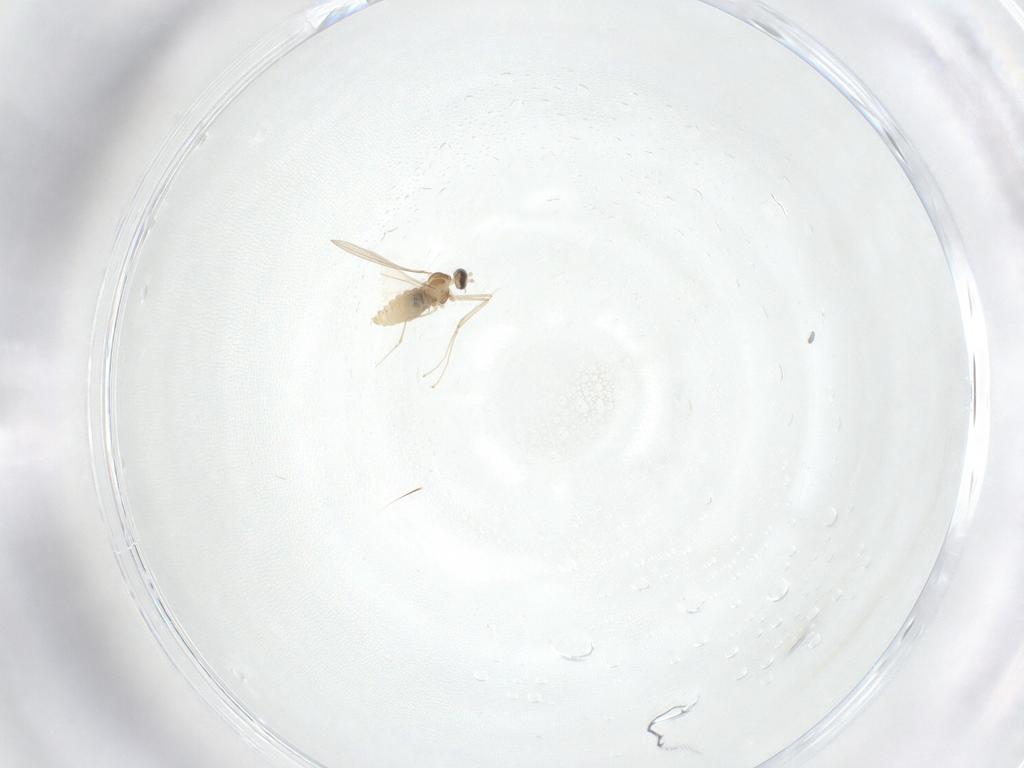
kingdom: Animalia
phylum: Arthropoda
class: Insecta
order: Diptera
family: Cecidomyiidae
